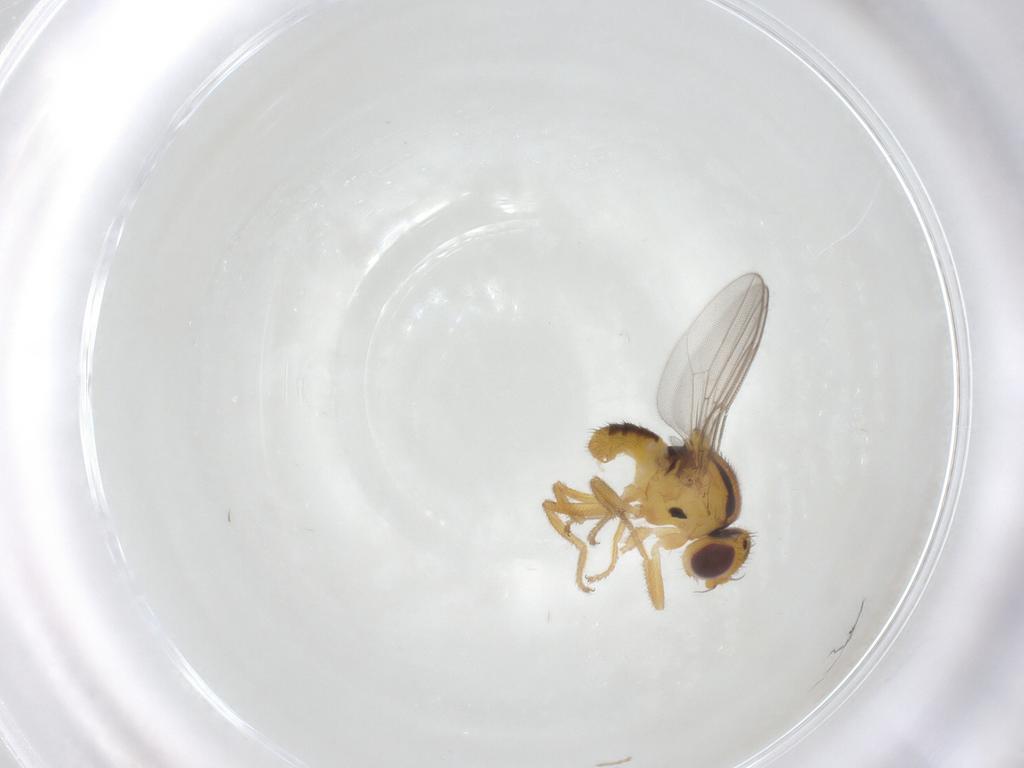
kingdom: Animalia
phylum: Arthropoda
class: Insecta
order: Diptera
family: Chloropidae
